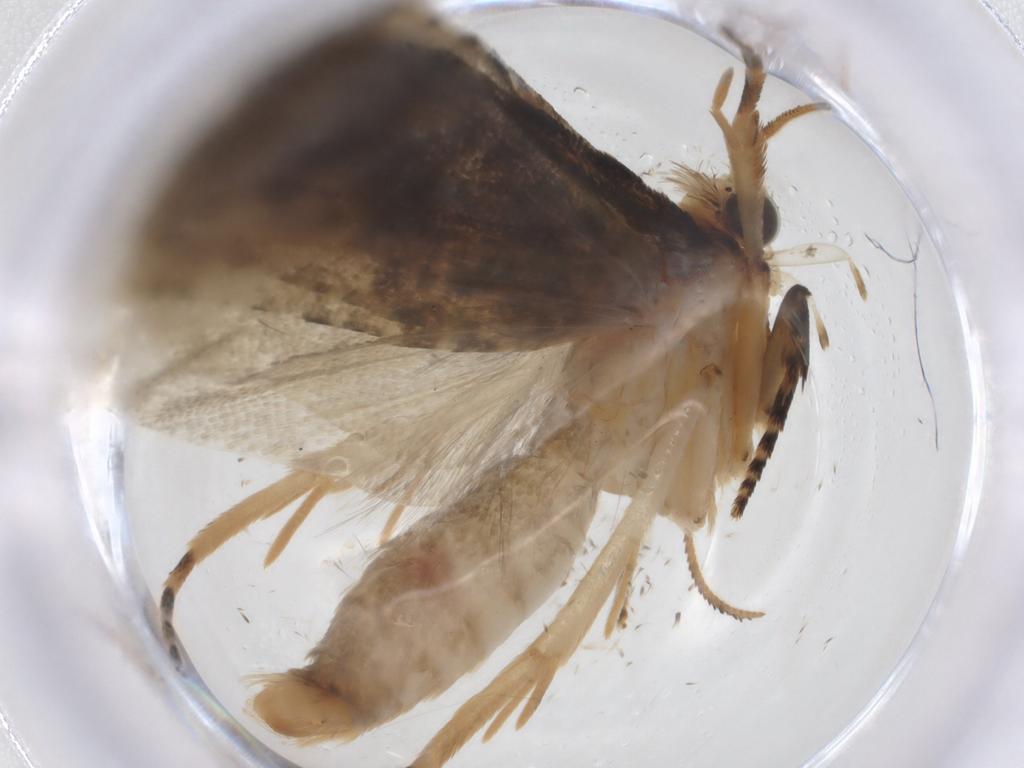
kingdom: Animalia
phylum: Arthropoda
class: Insecta
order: Lepidoptera
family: Tortricidae
